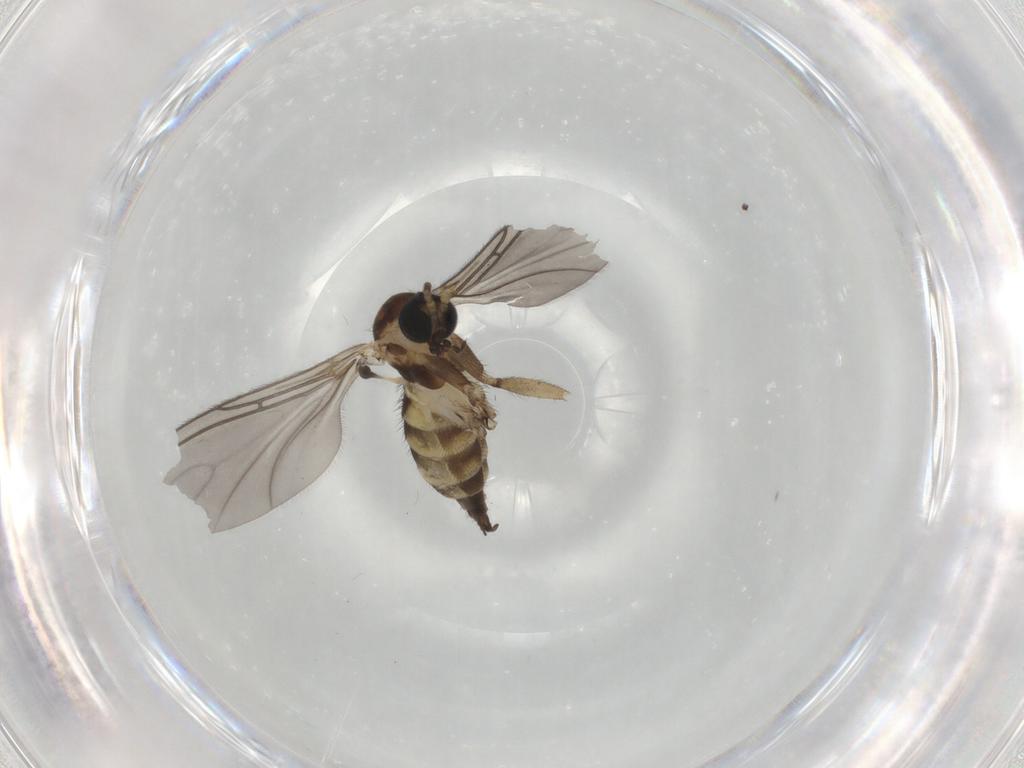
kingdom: Animalia
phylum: Arthropoda
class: Insecta
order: Diptera
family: Sciaridae
